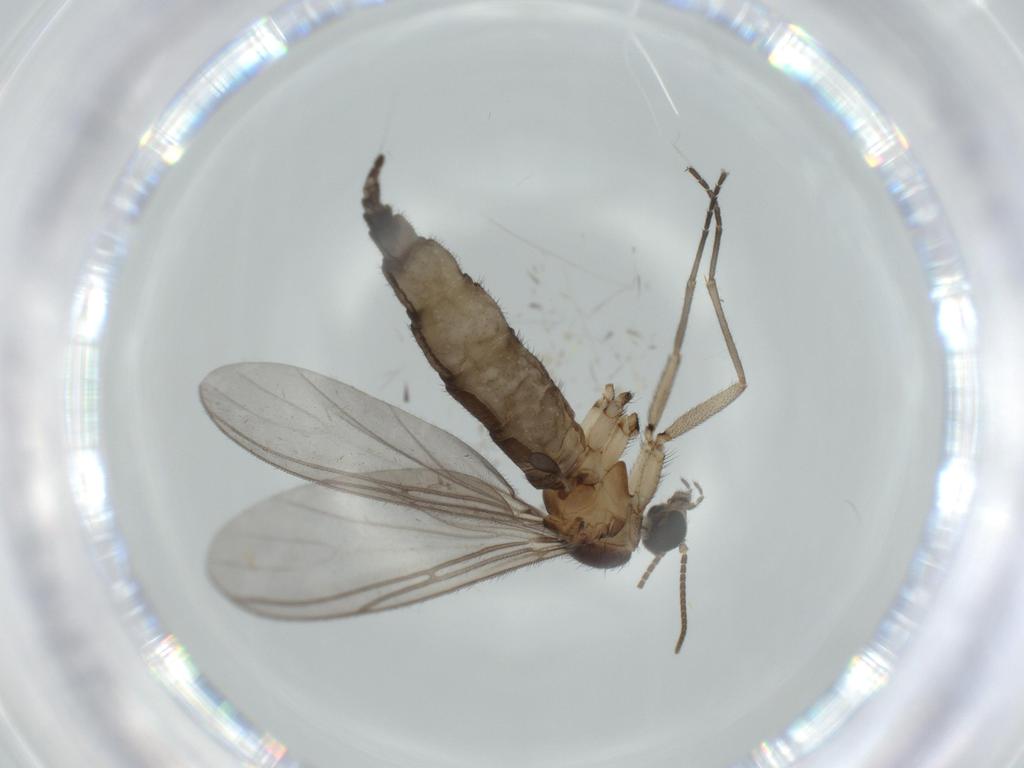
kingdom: Animalia
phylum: Arthropoda
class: Insecta
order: Diptera
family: Sciaridae
